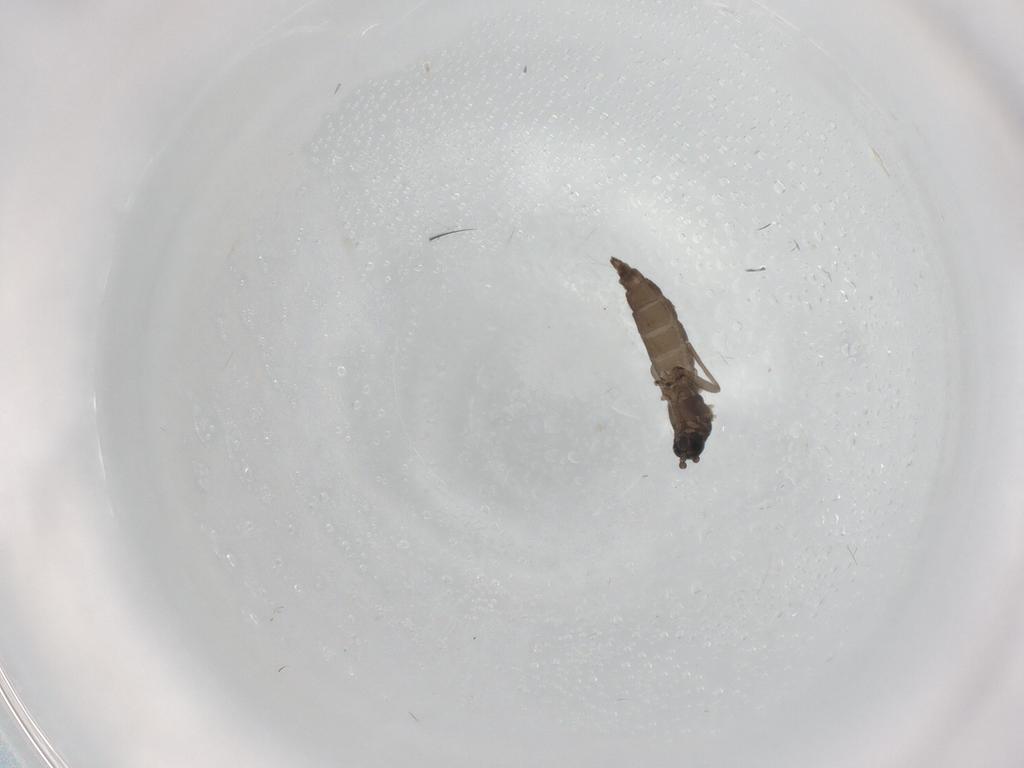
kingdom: Animalia
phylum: Arthropoda
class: Insecta
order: Diptera
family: Sciaridae
